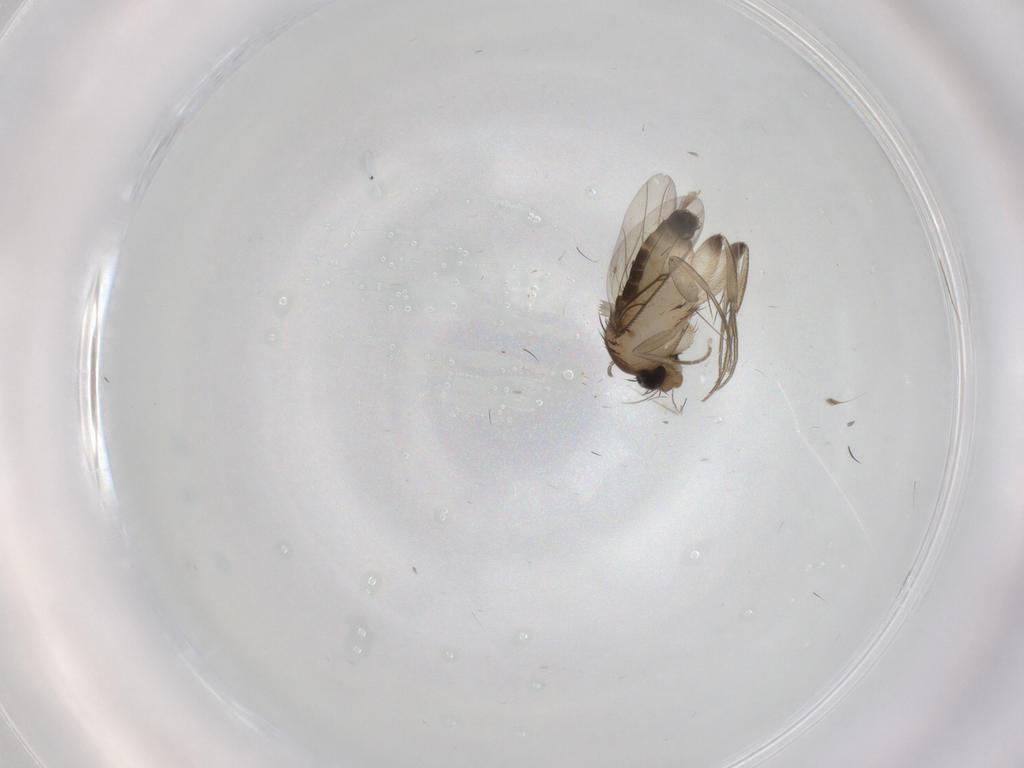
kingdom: Animalia
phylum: Arthropoda
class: Insecta
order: Diptera
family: Phoridae
